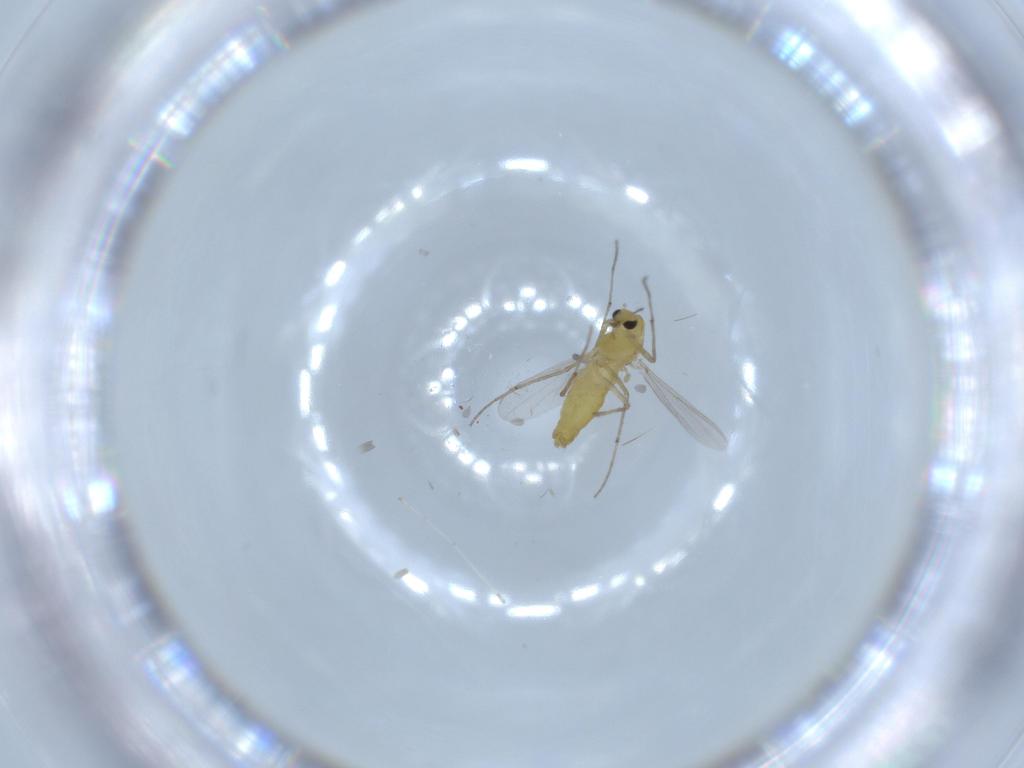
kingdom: Animalia
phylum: Arthropoda
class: Insecta
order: Diptera
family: Chironomidae
